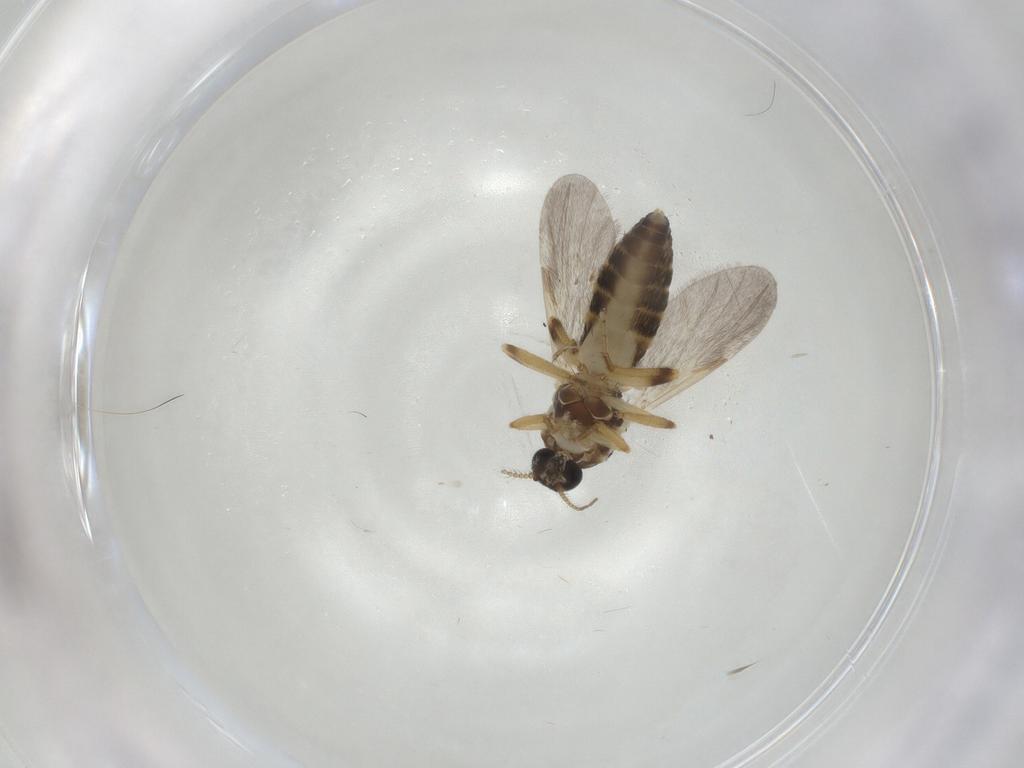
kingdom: Animalia
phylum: Arthropoda
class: Insecta
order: Diptera
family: Ceratopogonidae
